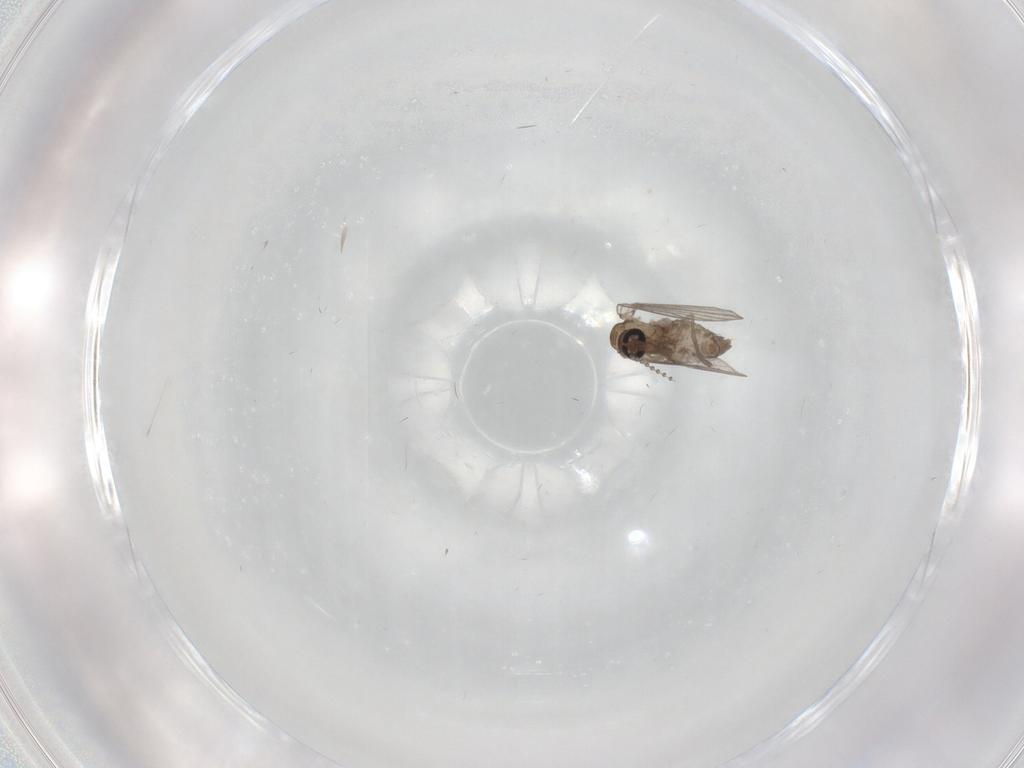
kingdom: Animalia
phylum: Arthropoda
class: Insecta
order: Diptera
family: Psychodidae
